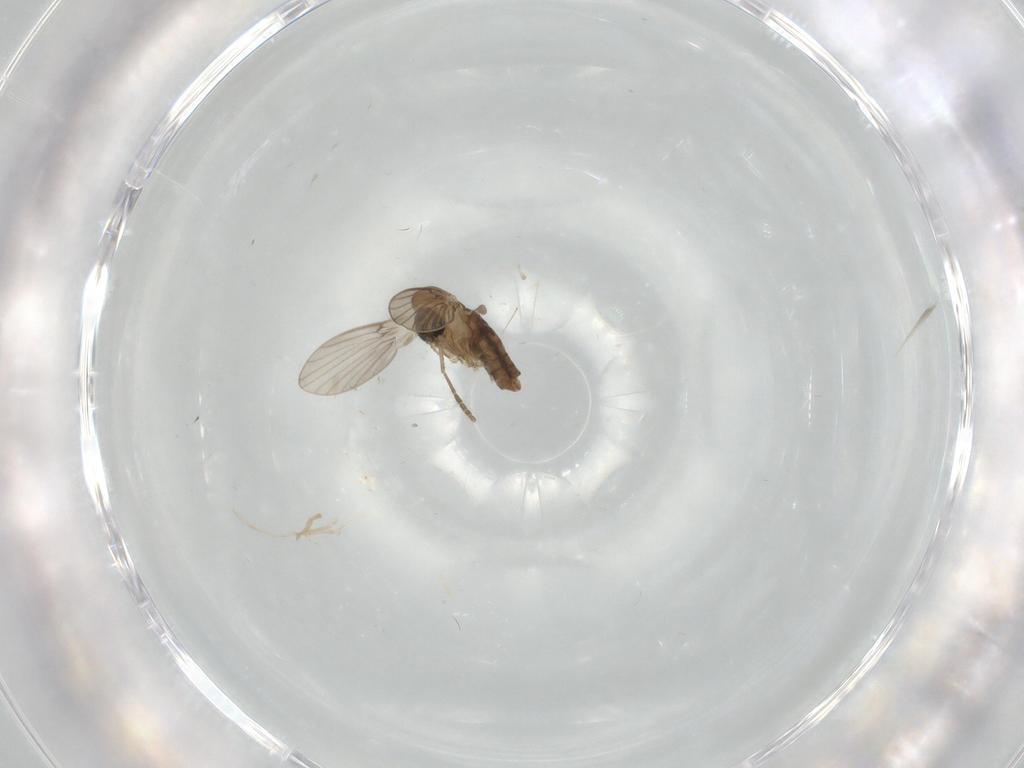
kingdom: Animalia
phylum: Arthropoda
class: Insecta
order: Diptera
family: Psychodidae
